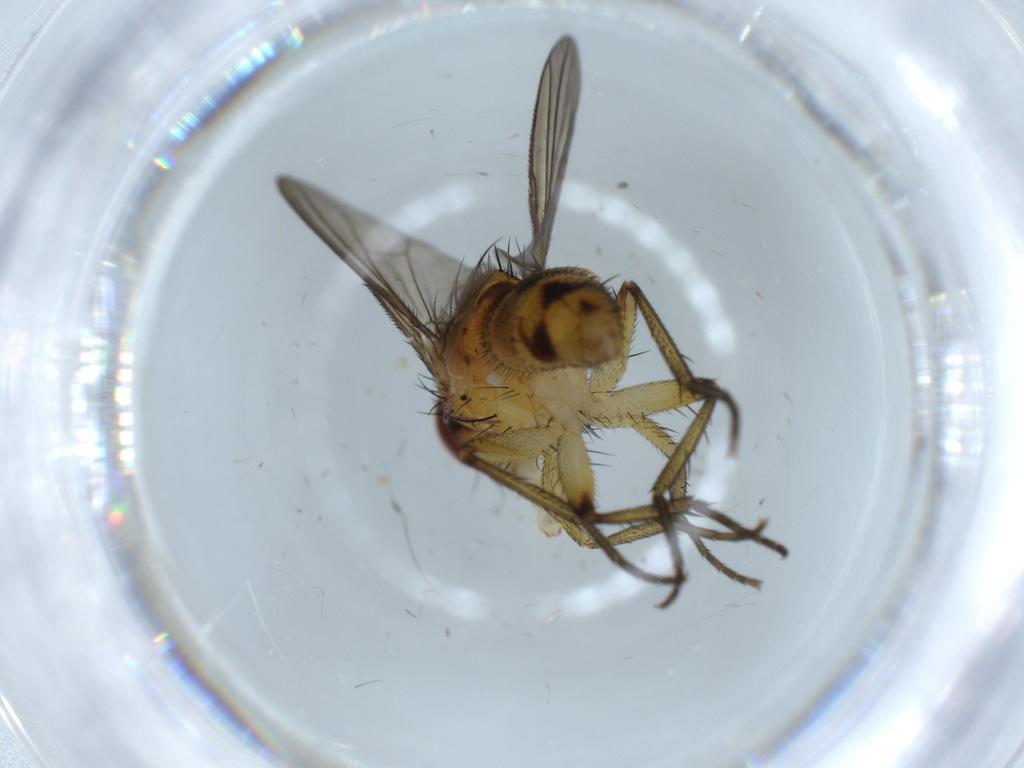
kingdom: Animalia
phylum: Arthropoda
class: Insecta
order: Diptera
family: Tachinidae
